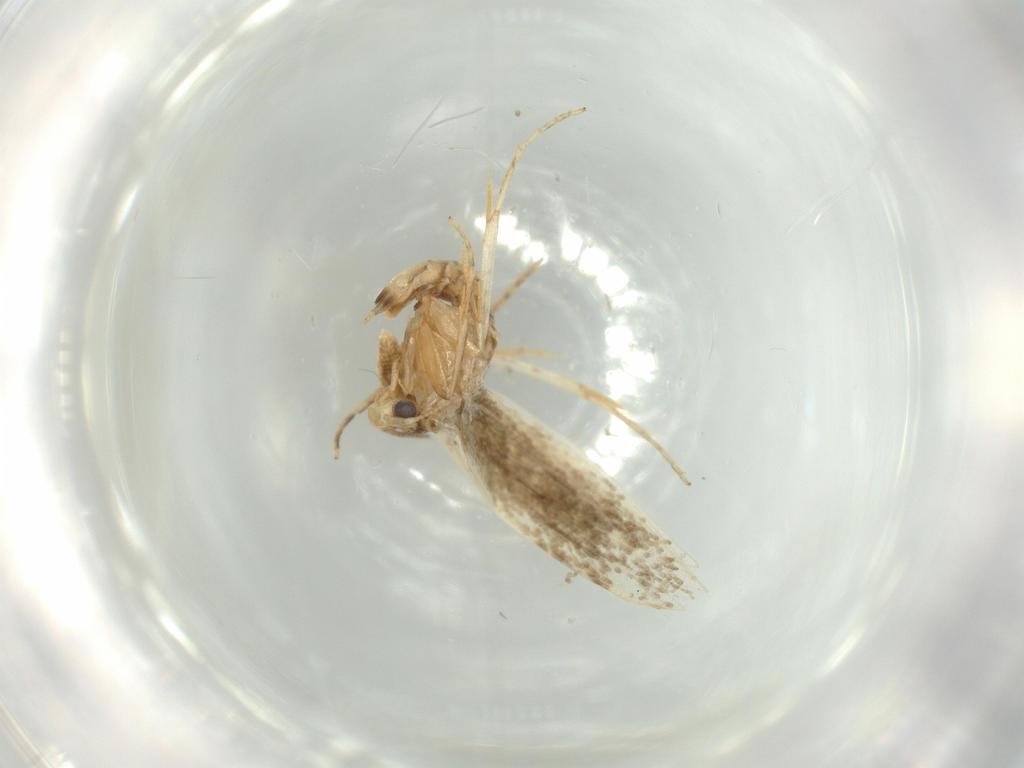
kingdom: Animalia
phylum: Arthropoda
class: Insecta
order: Lepidoptera
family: Tineidae
